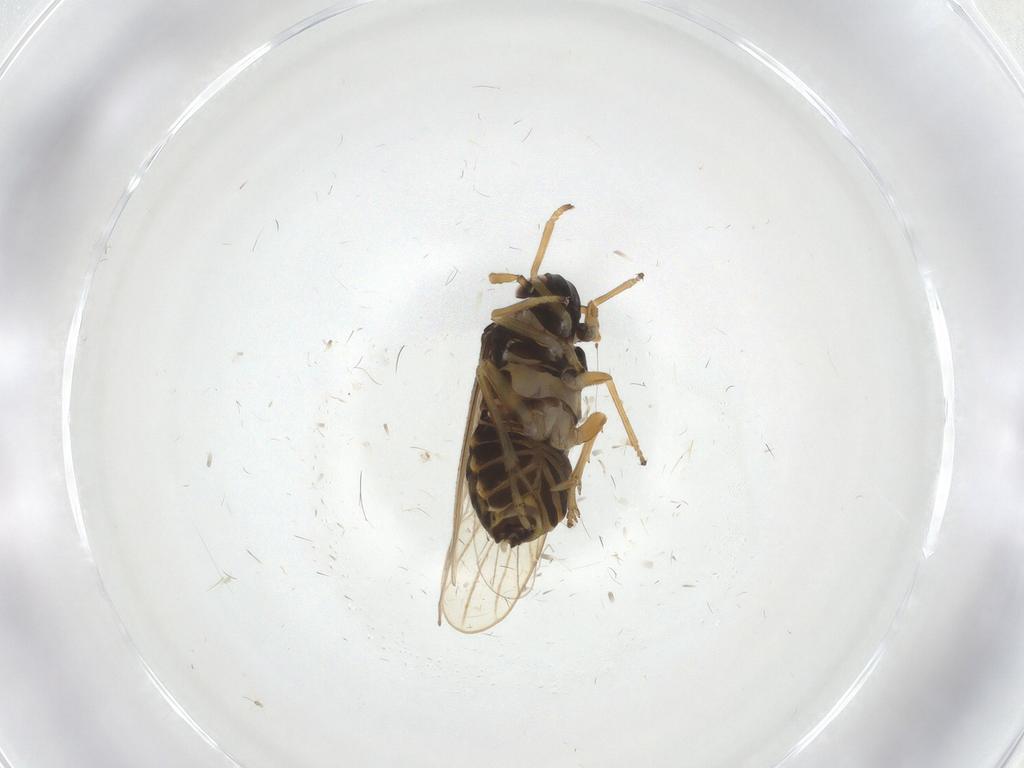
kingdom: Animalia
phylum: Arthropoda
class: Insecta
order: Hemiptera
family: Delphacidae
